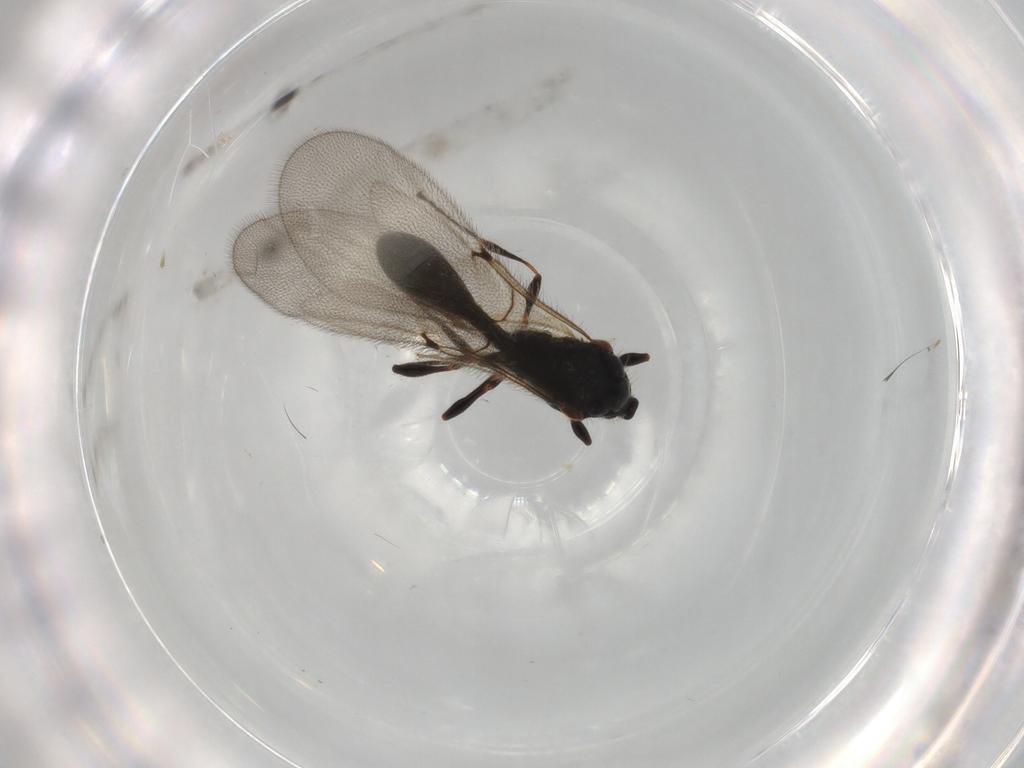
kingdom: Animalia
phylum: Arthropoda
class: Insecta
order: Hymenoptera
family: Diapriidae
